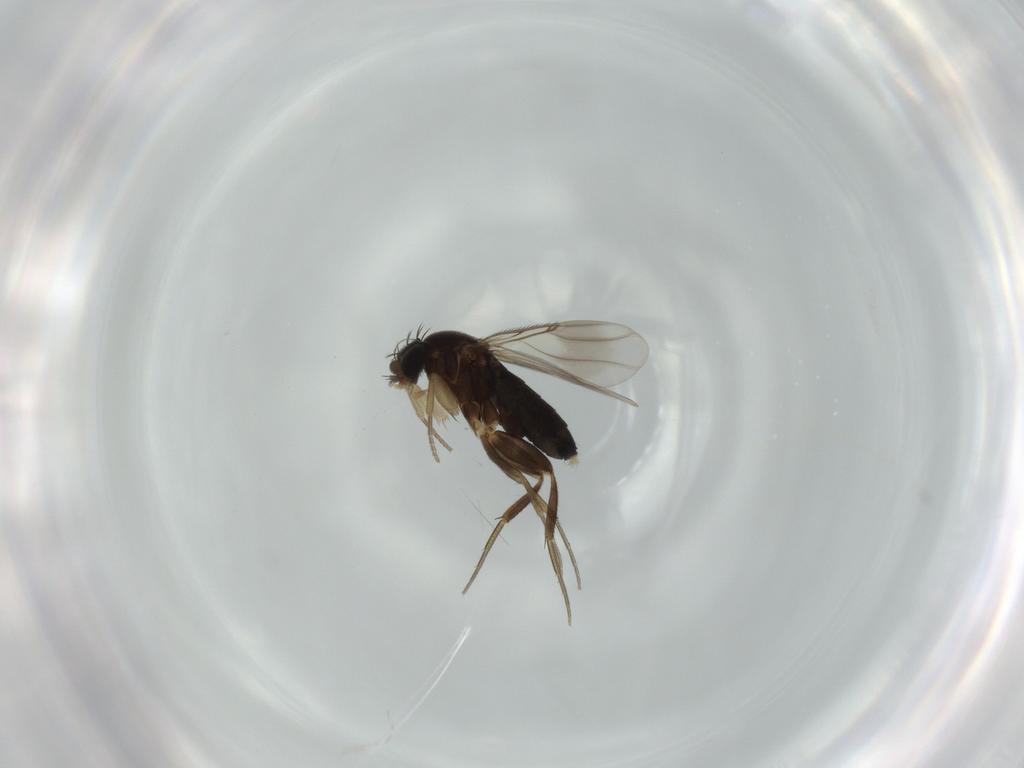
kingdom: Animalia
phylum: Arthropoda
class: Insecta
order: Diptera
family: Phoridae
